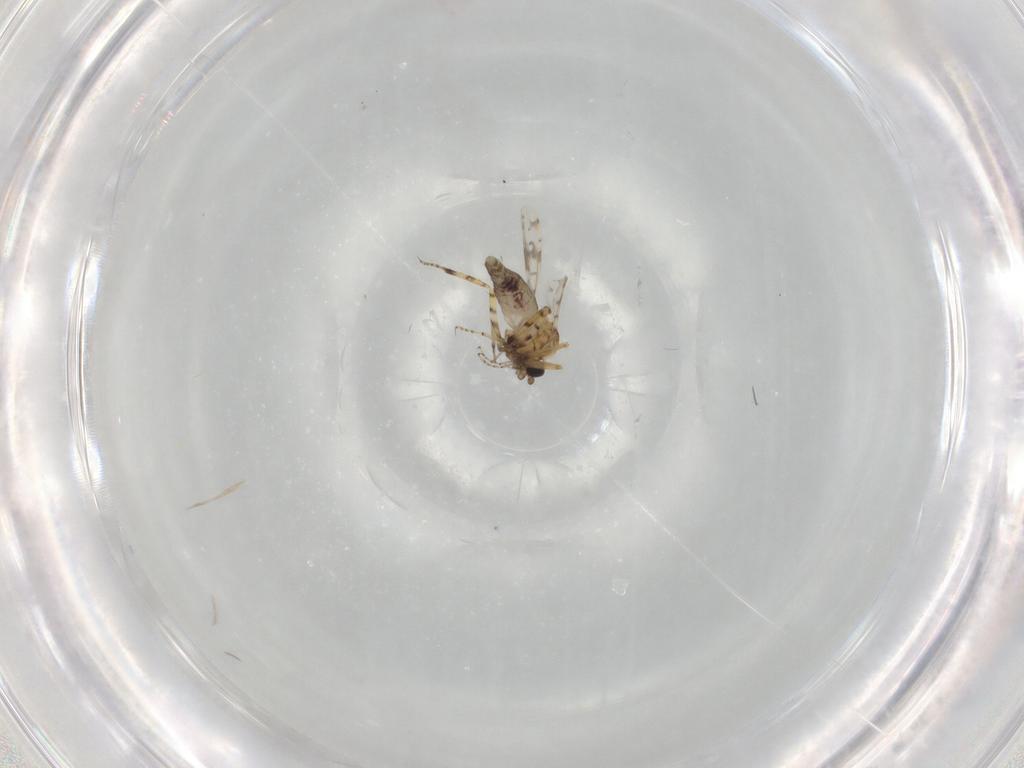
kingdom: Animalia
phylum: Arthropoda
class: Insecta
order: Diptera
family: Ceratopogonidae
